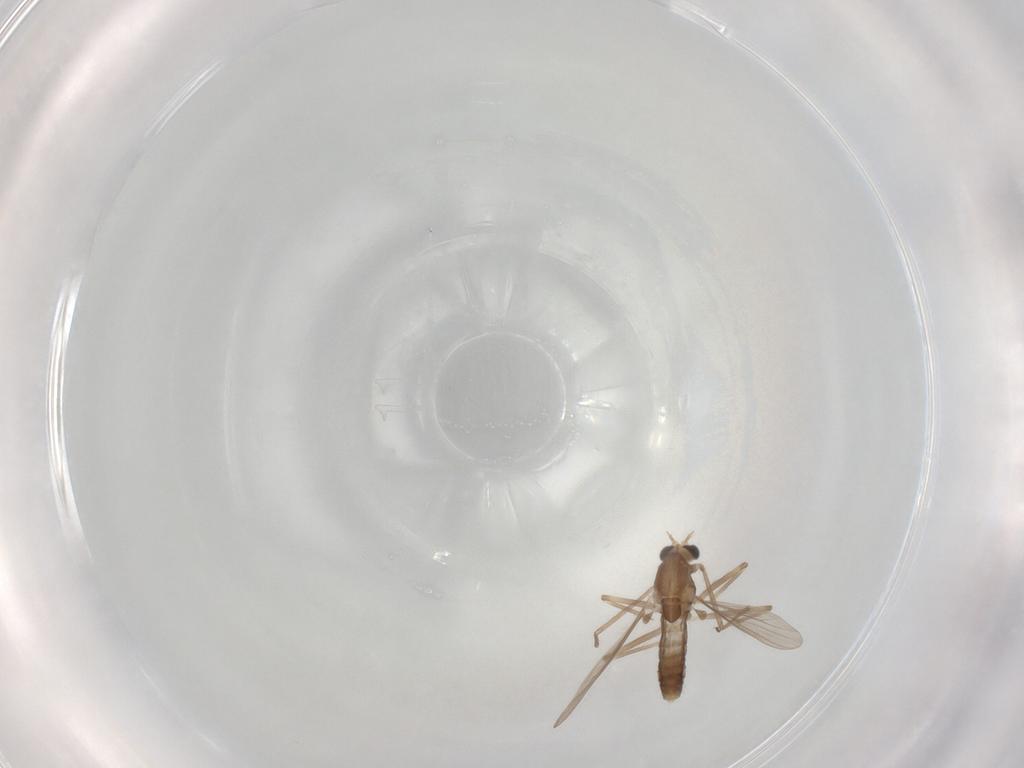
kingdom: Animalia
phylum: Arthropoda
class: Insecta
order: Diptera
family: Chironomidae
